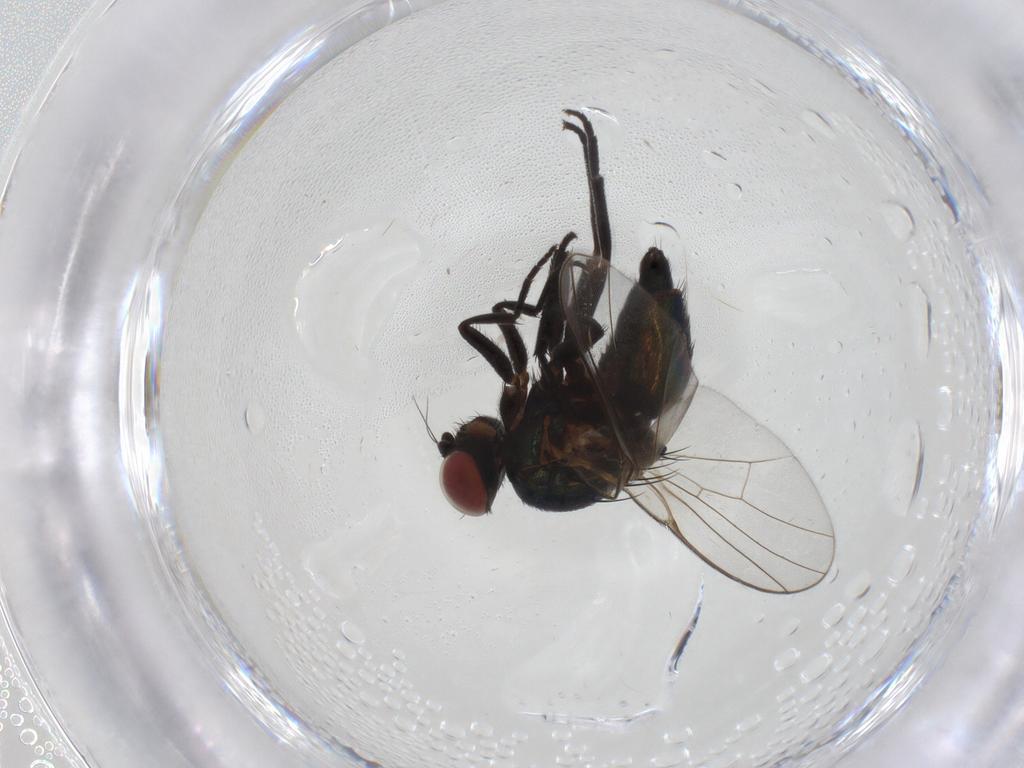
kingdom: Animalia
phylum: Arthropoda
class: Insecta
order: Diptera
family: Agromyzidae
